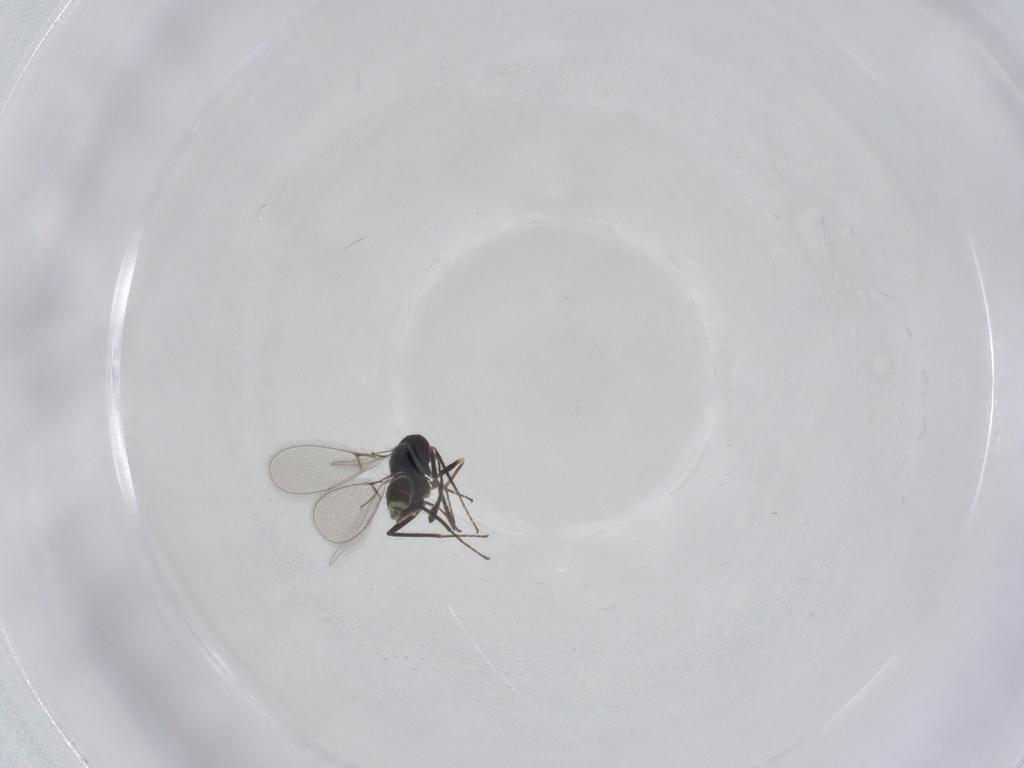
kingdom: Animalia
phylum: Arthropoda
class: Insecta
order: Hymenoptera
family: Mymaridae
